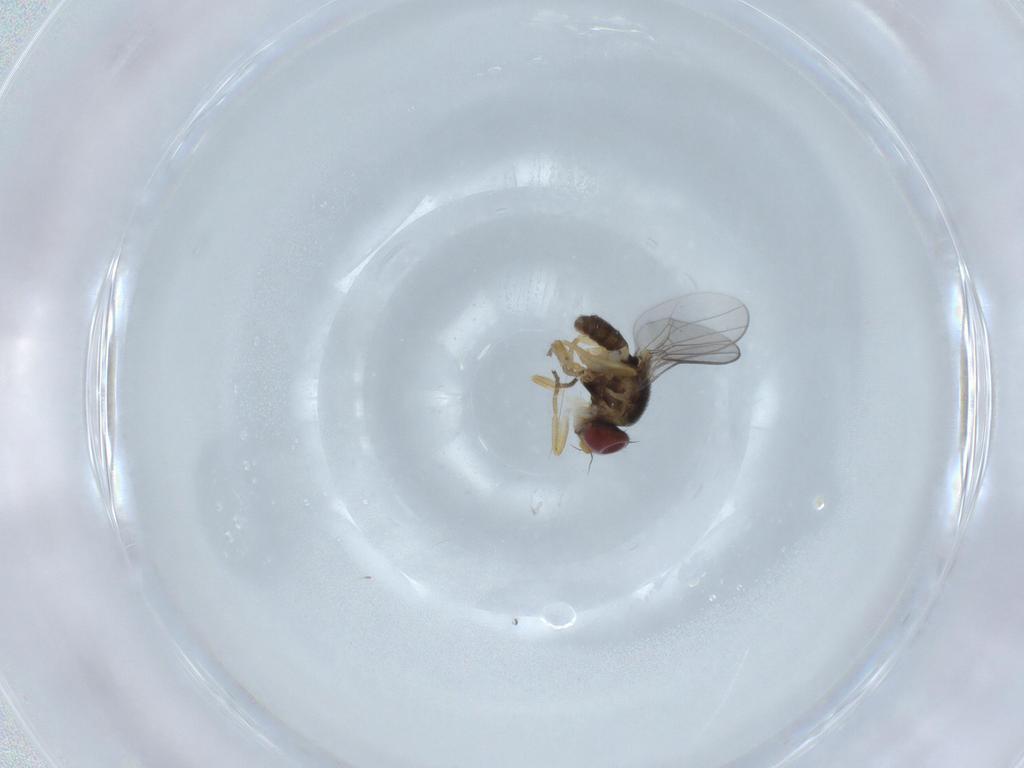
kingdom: Animalia
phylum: Arthropoda
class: Insecta
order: Diptera
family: Chloropidae
